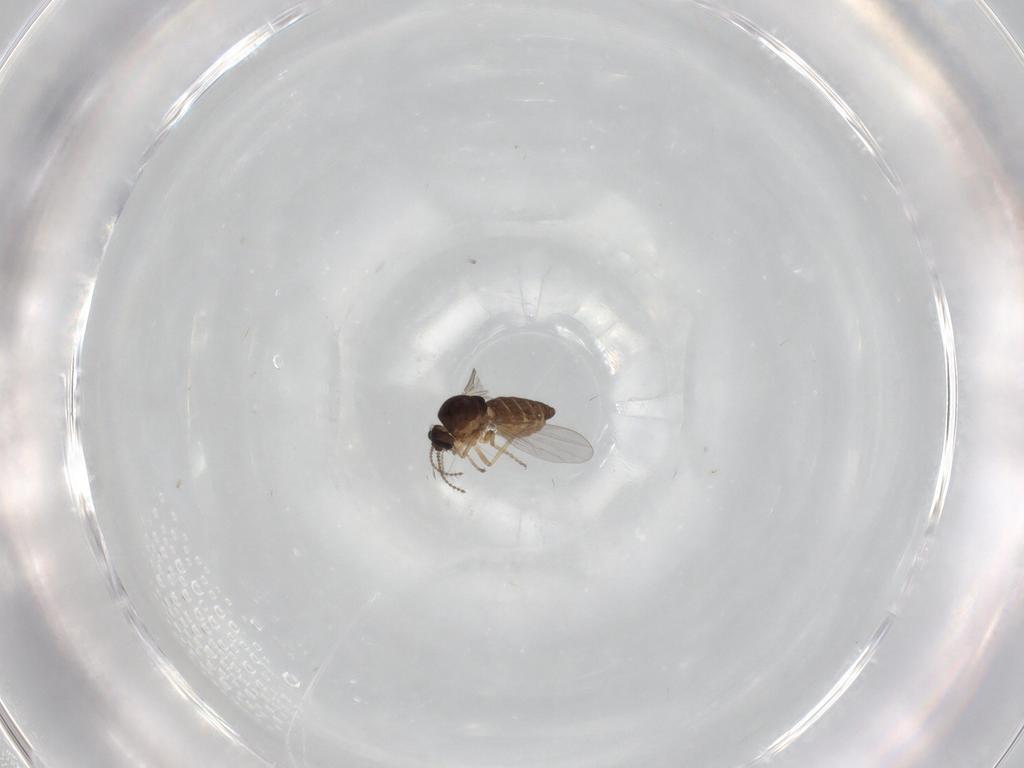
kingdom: Animalia
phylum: Arthropoda
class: Insecta
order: Diptera
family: Ceratopogonidae
